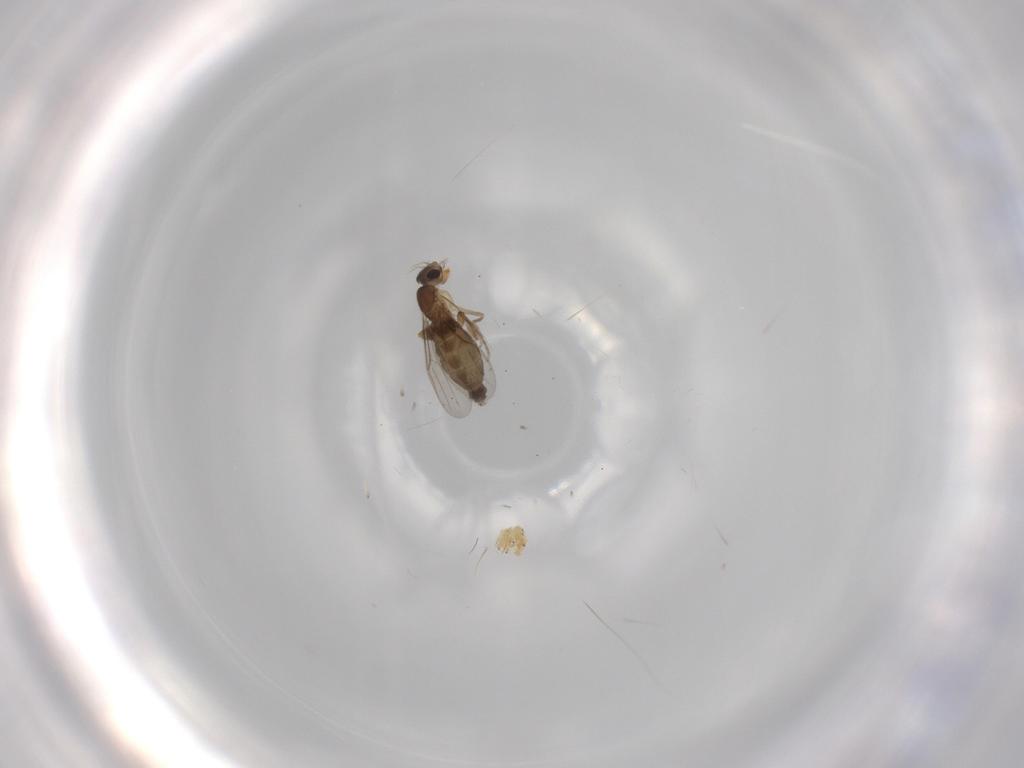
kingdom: Animalia
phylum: Arthropoda
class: Insecta
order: Diptera
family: Phoridae
